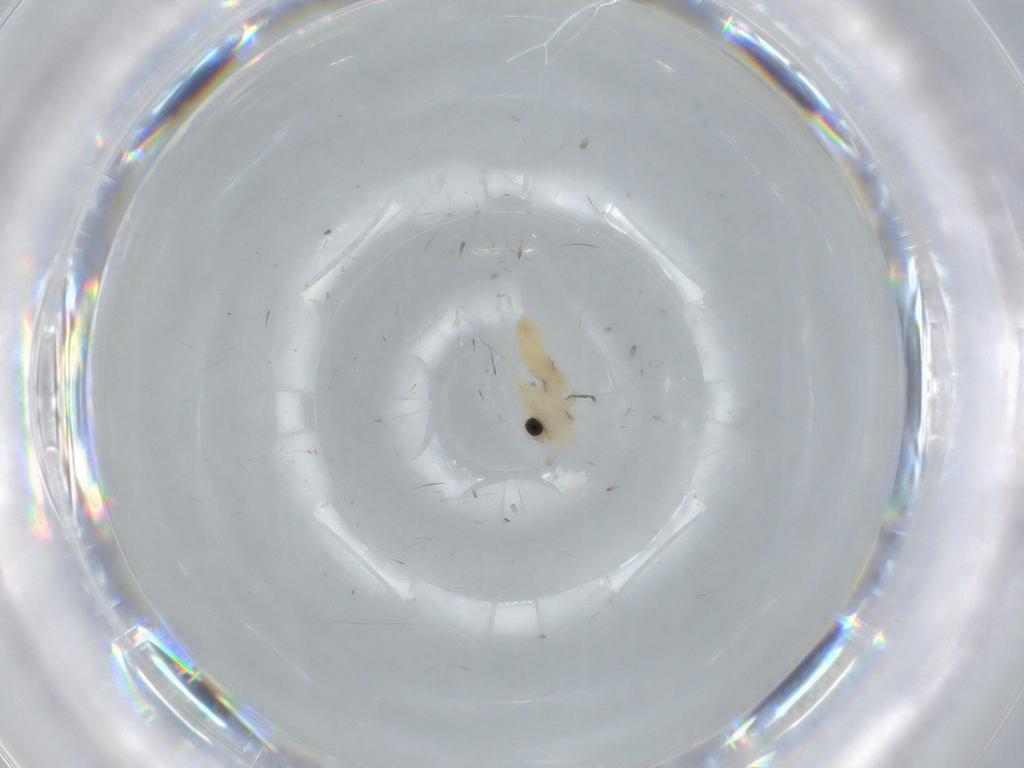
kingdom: Animalia
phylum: Arthropoda
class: Insecta
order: Diptera
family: Cecidomyiidae
